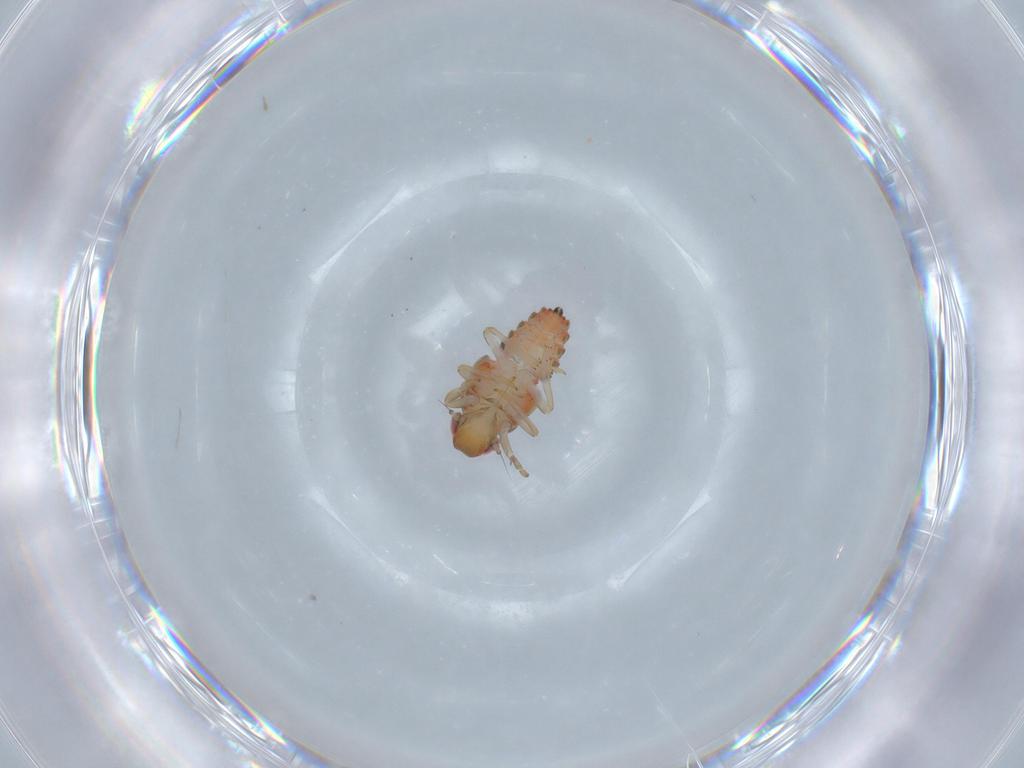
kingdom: Animalia
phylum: Arthropoda
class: Insecta
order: Hemiptera
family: Issidae
